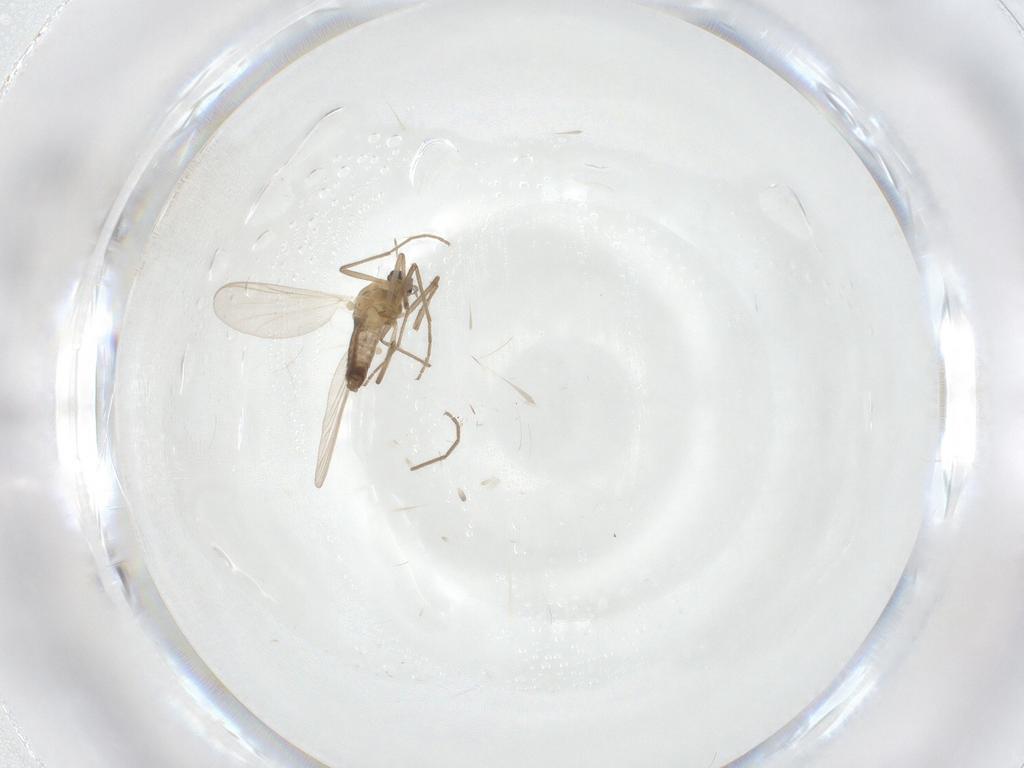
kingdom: Animalia
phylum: Arthropoda
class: Insecta
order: Diptera
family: Chironomidae
